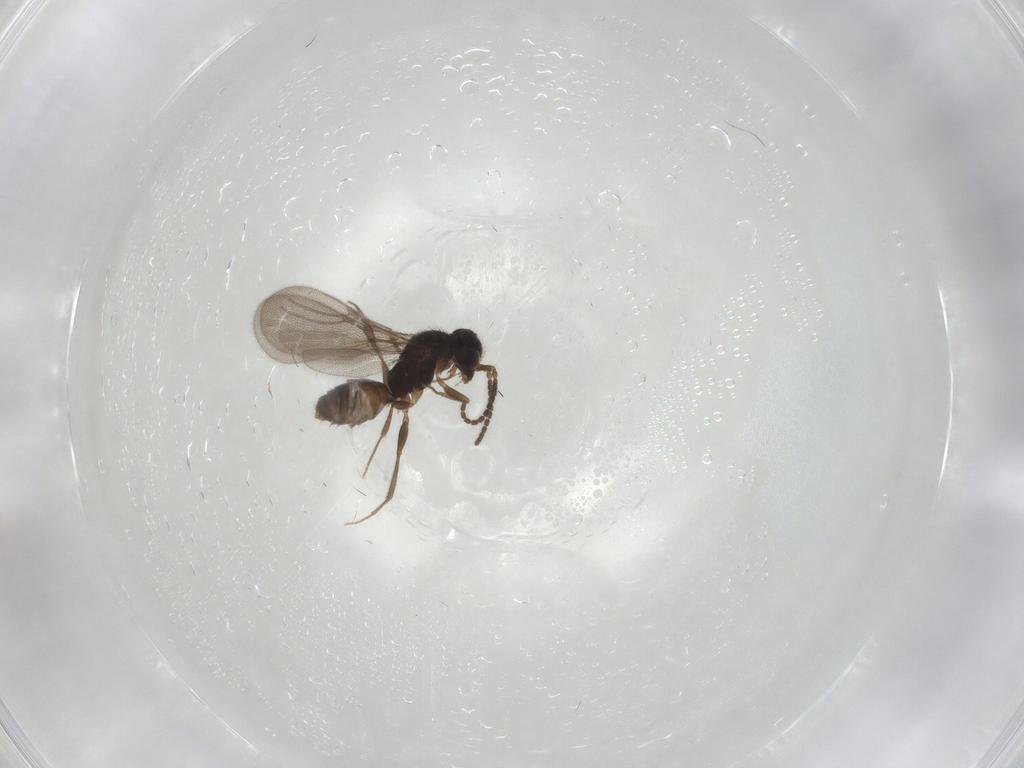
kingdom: Animalia
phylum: Arthropoda
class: Insecta
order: Hymenoptera
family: Bethylidae
